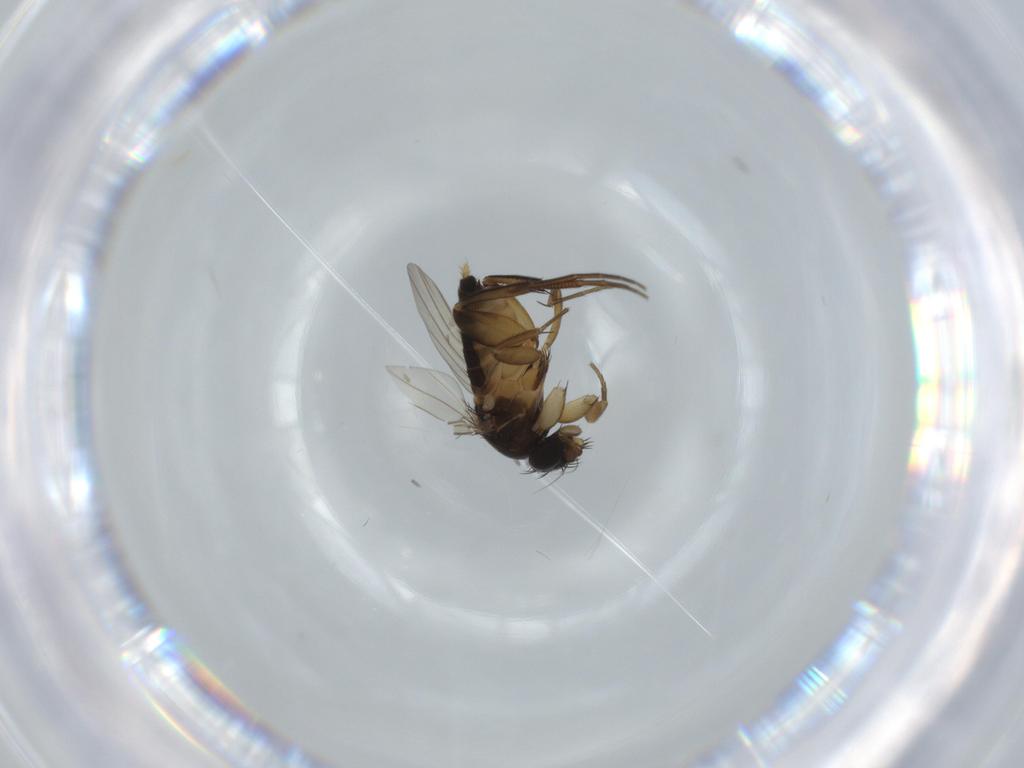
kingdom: Animalia
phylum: Arthropoda
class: Insecta
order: Diptera
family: Phoridae
